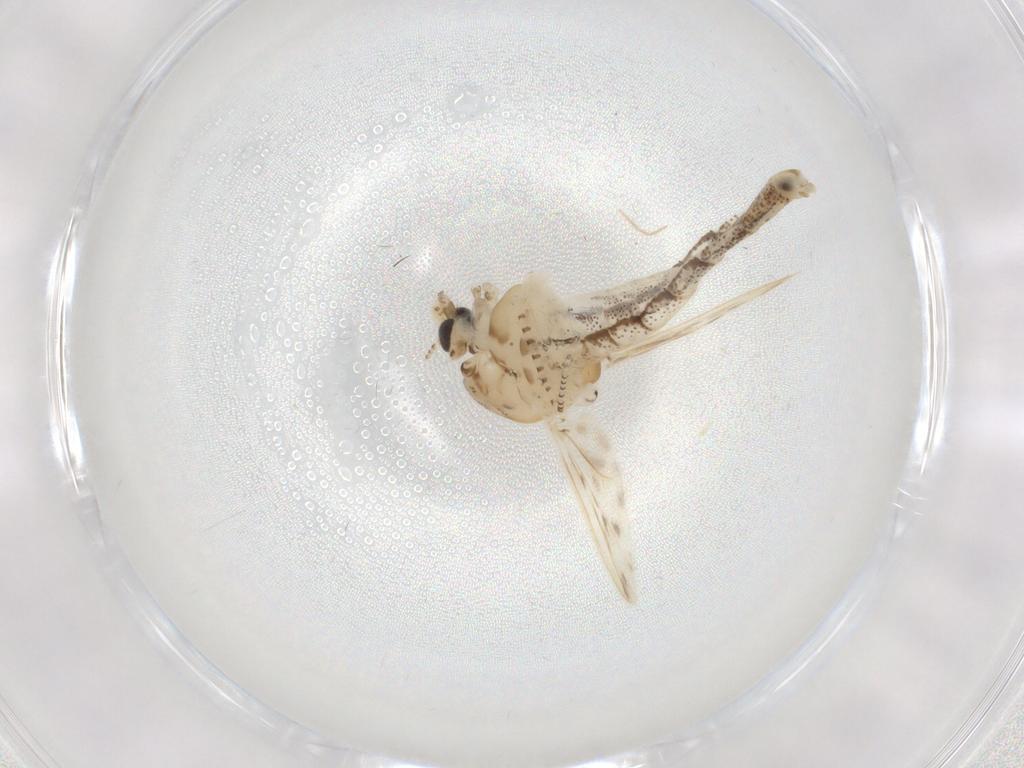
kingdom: Animalia
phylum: Arthropoda
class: Insecta
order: Diptera
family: Chaoboridae
